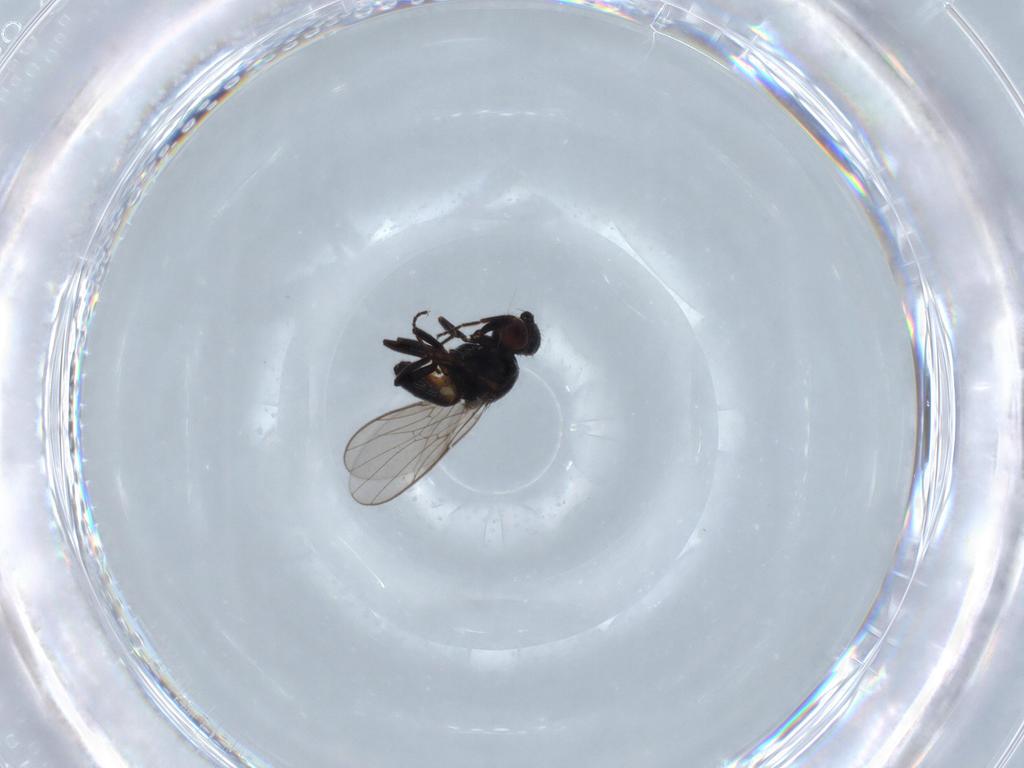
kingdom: Animalia
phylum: Arthropoda
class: Insecta
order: Diptera
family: Chloropidae
